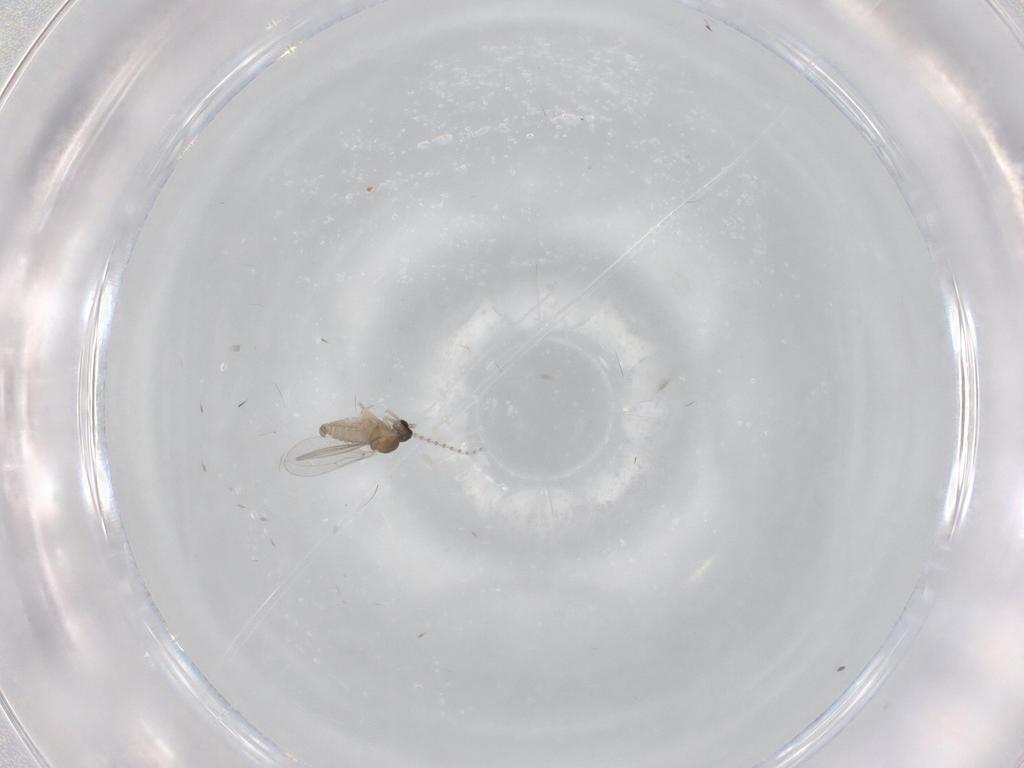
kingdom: Animalia
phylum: Arthropoda
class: Insecta
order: Diptera
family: Cecidomyiidae
